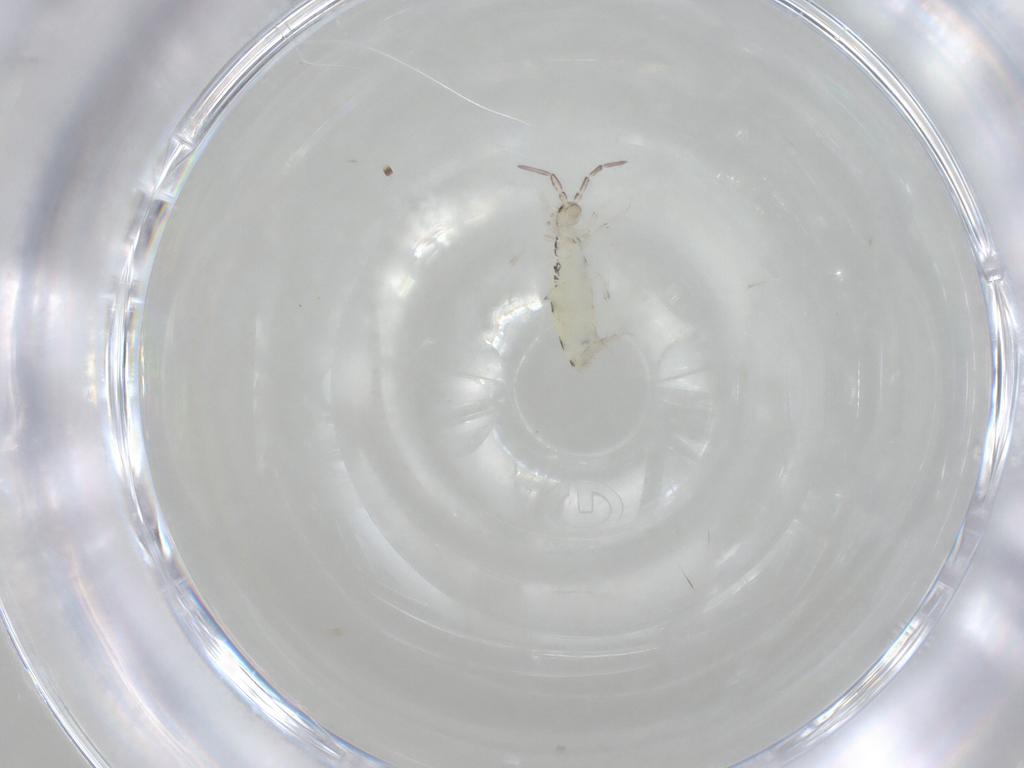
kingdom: Animalia
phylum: Arthropoda
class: Collembola
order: Entomobryomorpha
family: Entomobryidae
